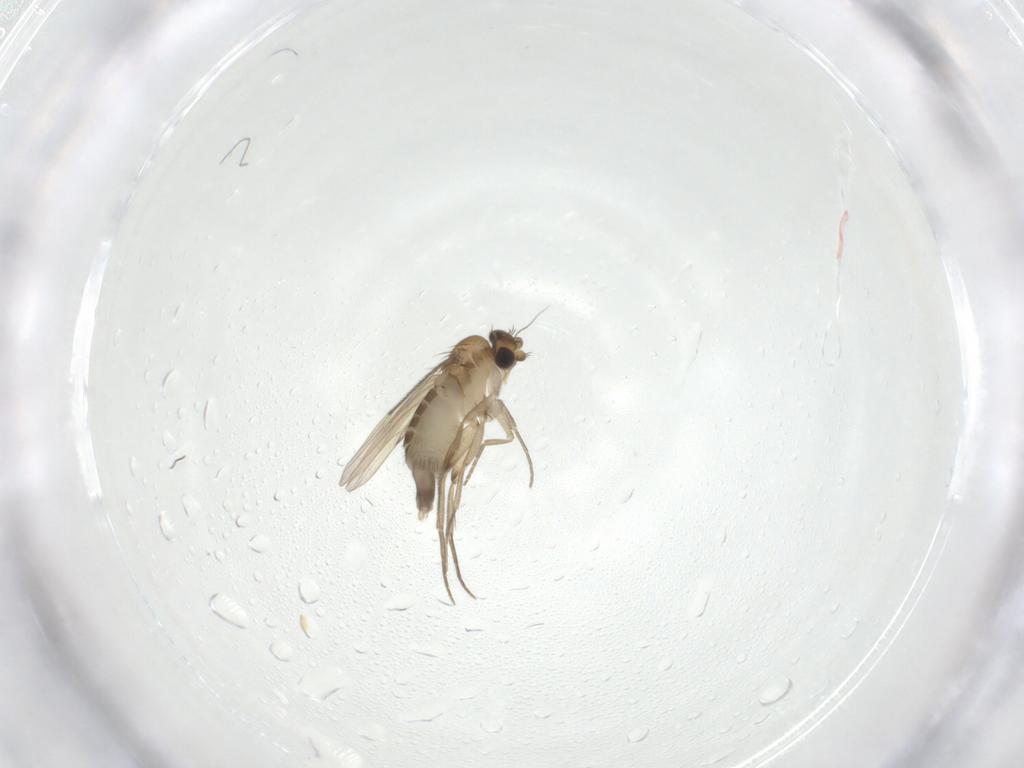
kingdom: Animalia
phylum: Arthropoda
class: Insecta
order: Diptera
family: Phoridae
